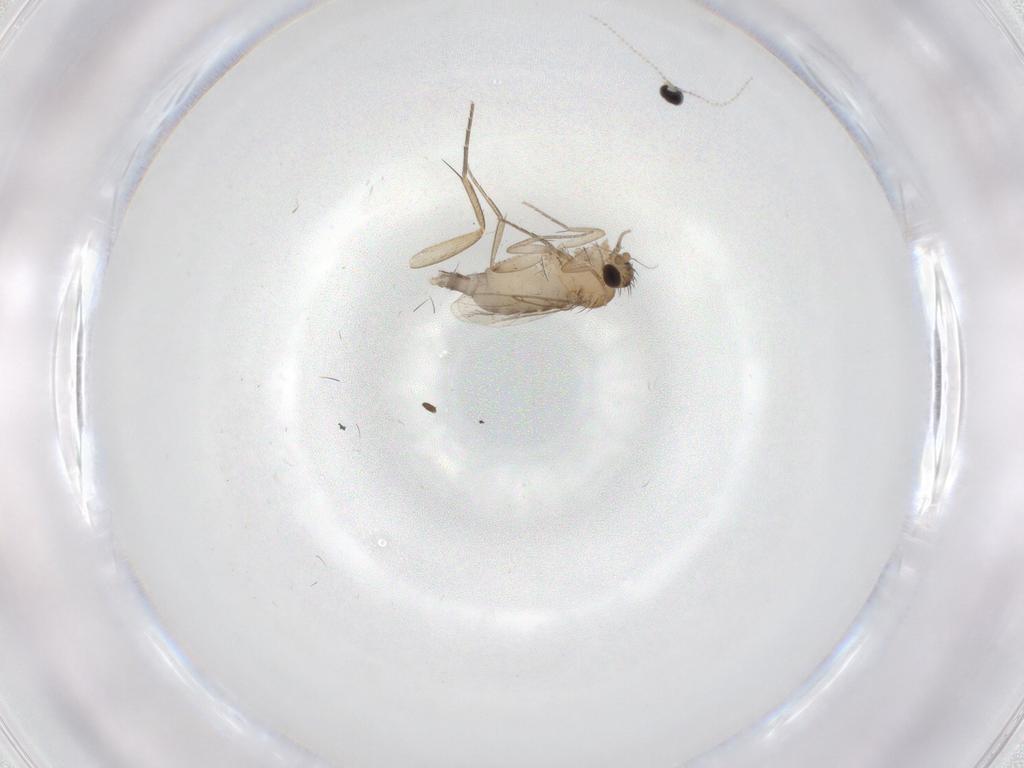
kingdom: Animalia
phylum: Arthropoda
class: Insecta
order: Diptera
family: Phoridae
